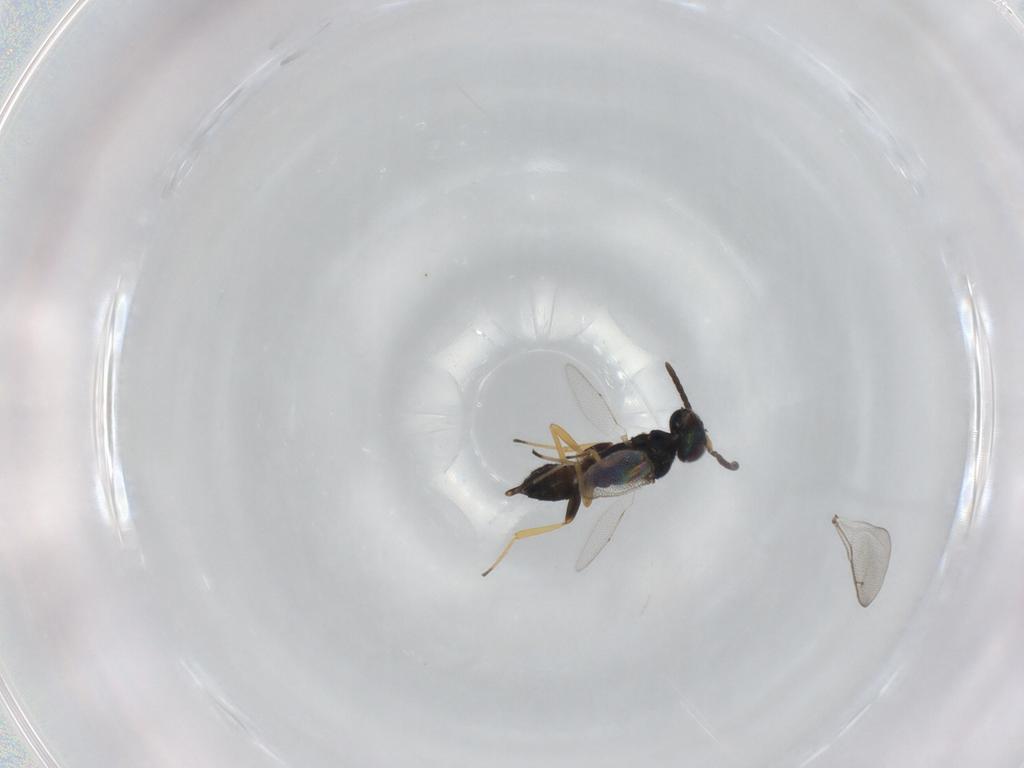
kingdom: Animalia
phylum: Arthropoda
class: Insecta
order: Hymenoptera
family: Eupelmidae
